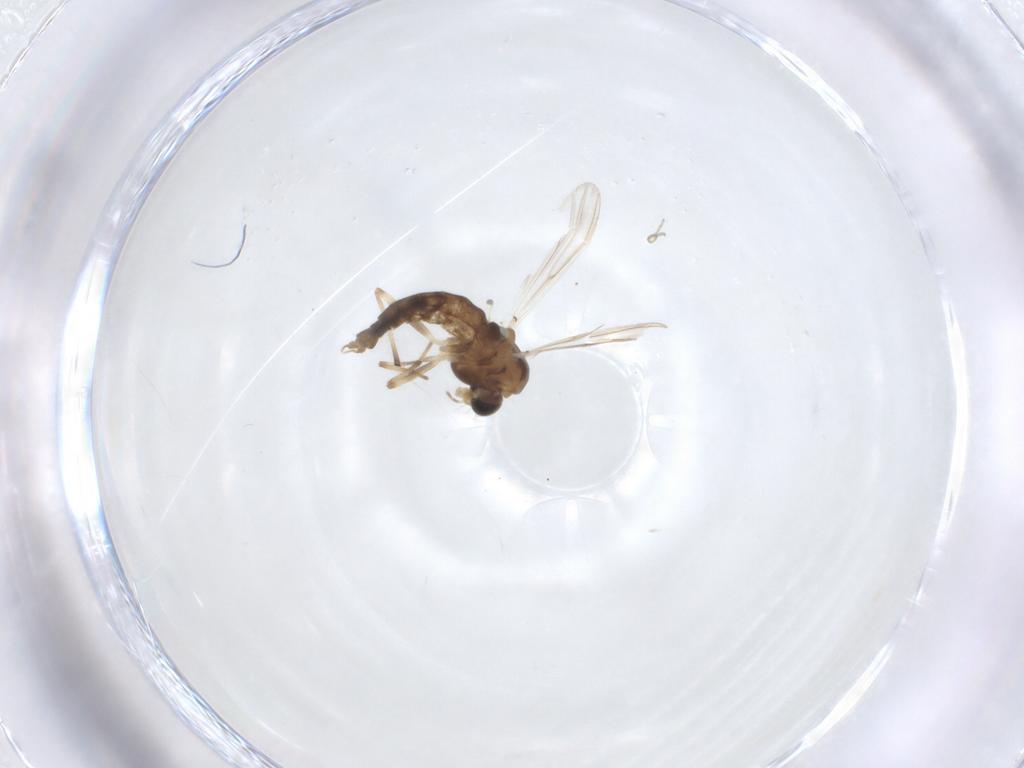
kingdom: Animalia
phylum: Arthropoda
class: Insecta
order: Diptera
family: Chironomidae
